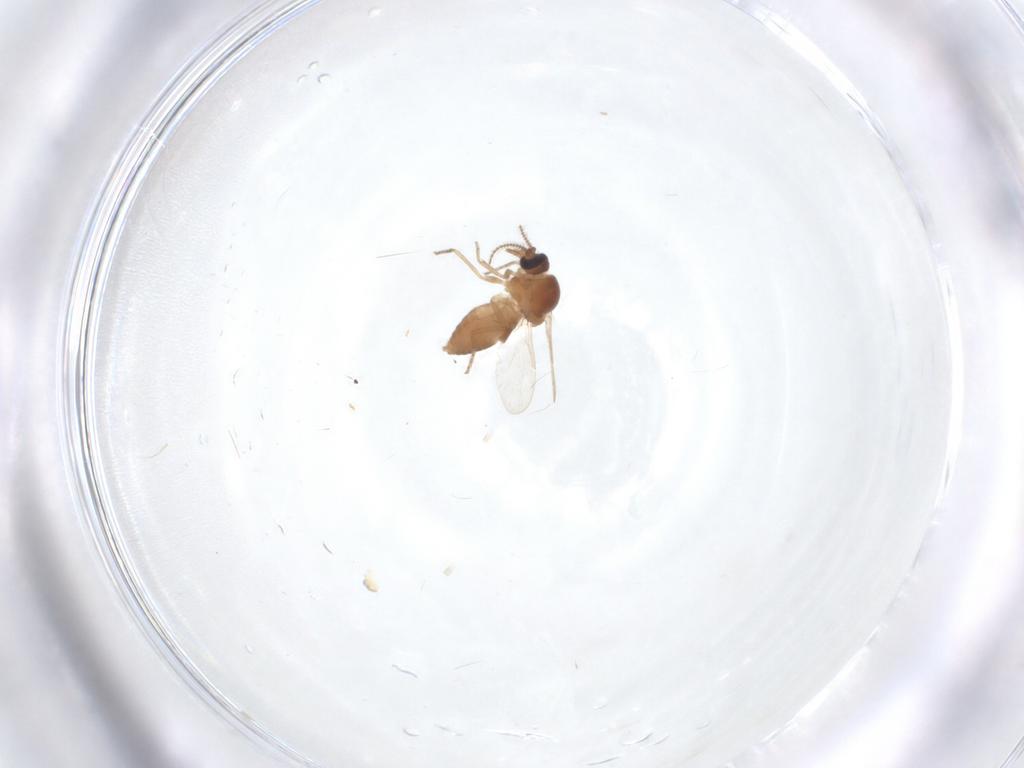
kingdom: Animalia
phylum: Arthropoda
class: Insecta
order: Diptera
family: Ceratopogonidae
